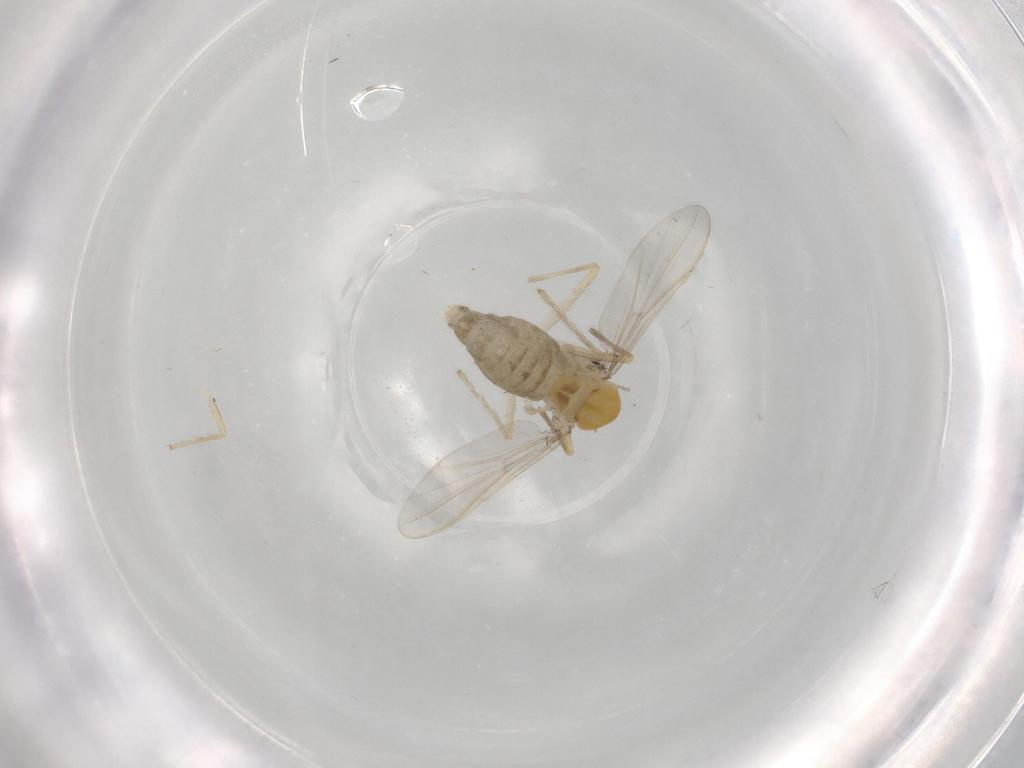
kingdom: Animalia
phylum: Arthropoda
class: Insecta
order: Diptera
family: Chironomidae
